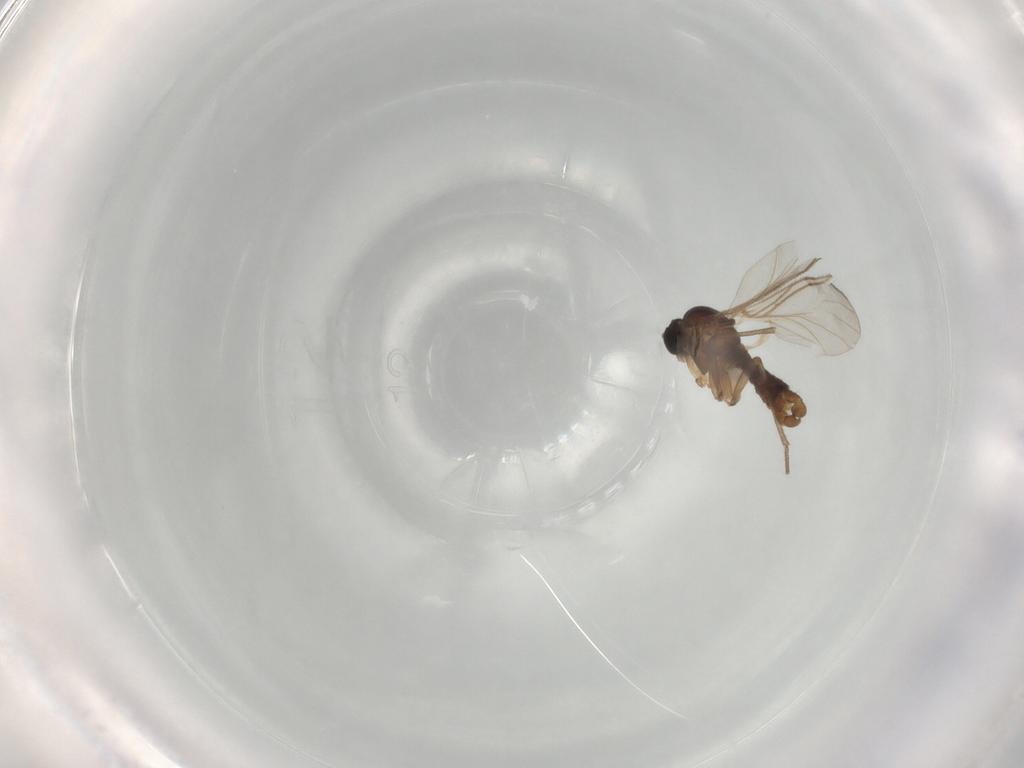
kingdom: Animalia
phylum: Arthropoda
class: Insecta
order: Diptera
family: Sciaridae
